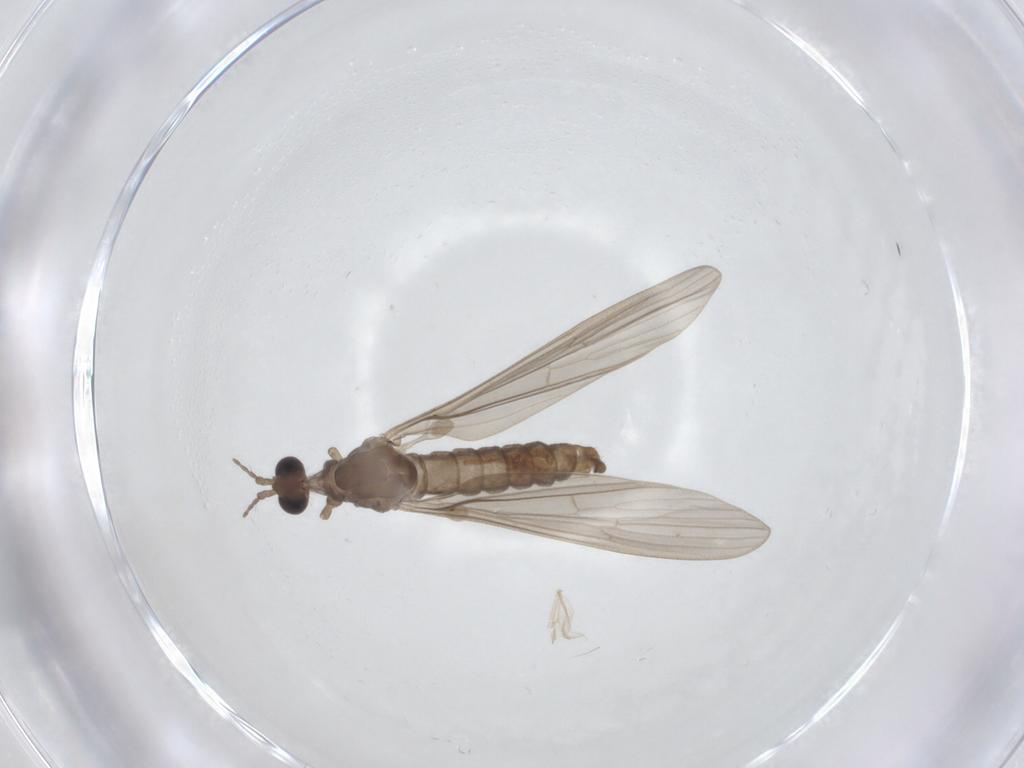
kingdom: Animalia
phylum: Arthropoda
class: Insecta
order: Diptera
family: Limoniidae
